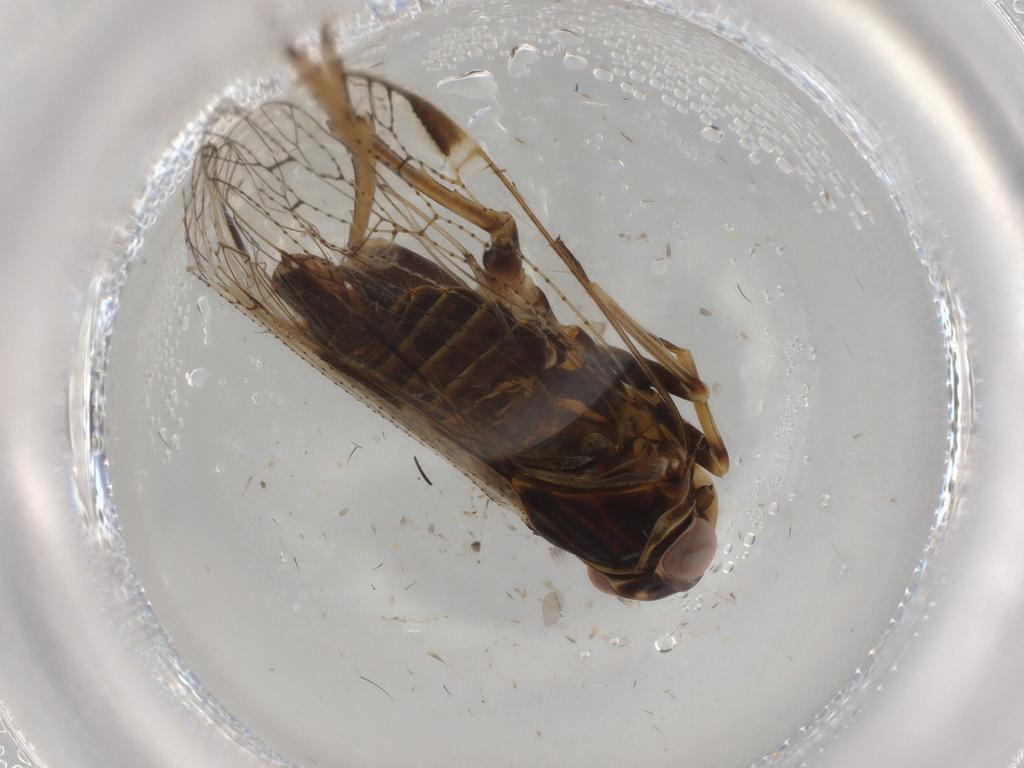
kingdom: Animalia
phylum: Arthropoda
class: Insecta
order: Hemiptera
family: Cixiidae
